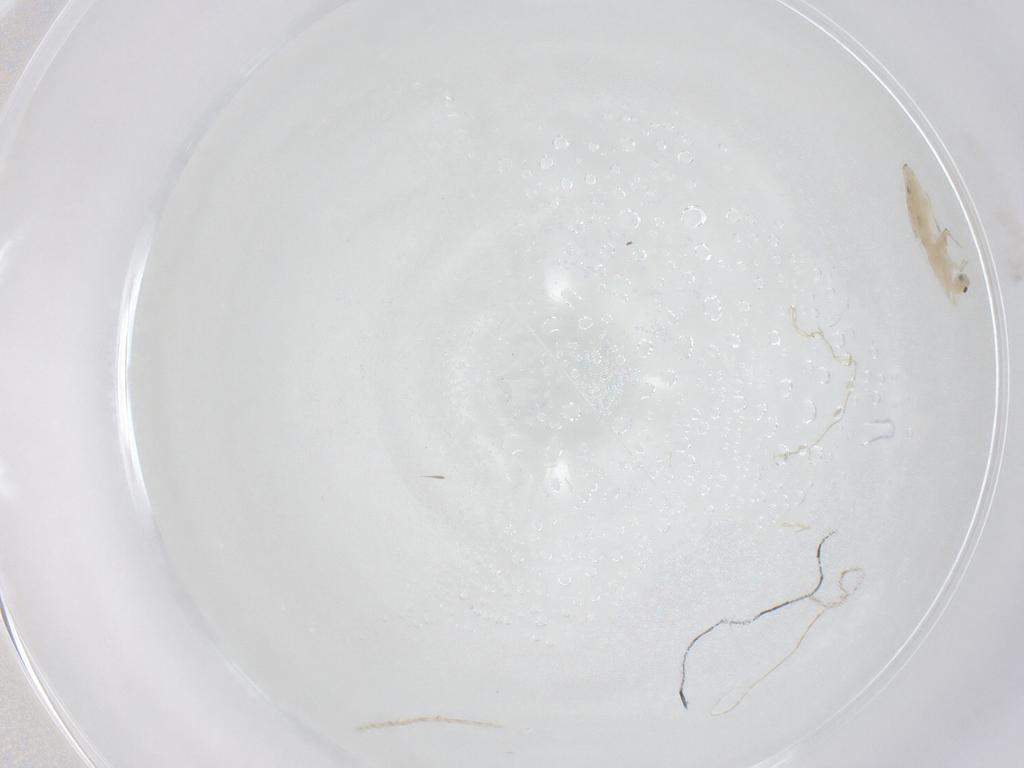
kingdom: Animalia
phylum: Arthropoda
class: Collembola
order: Entomobryomorpha
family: Entomobryidae
